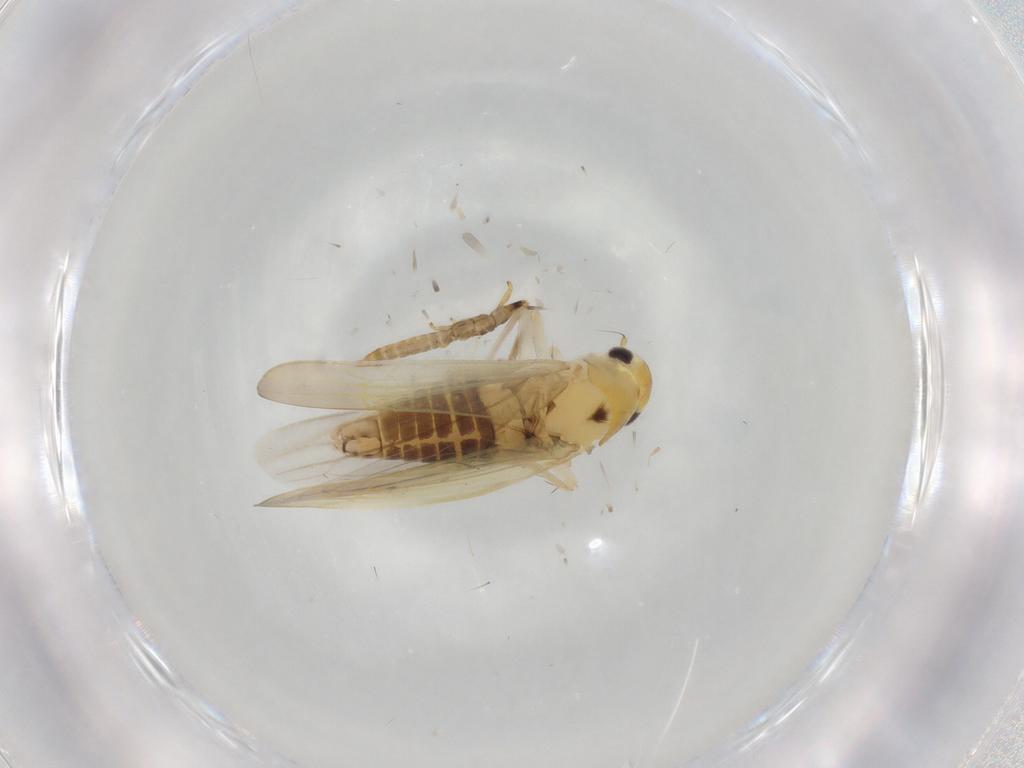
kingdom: Animalia
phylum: Arthropoda
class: Insecta
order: Diptera
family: Cecidomyiidae
